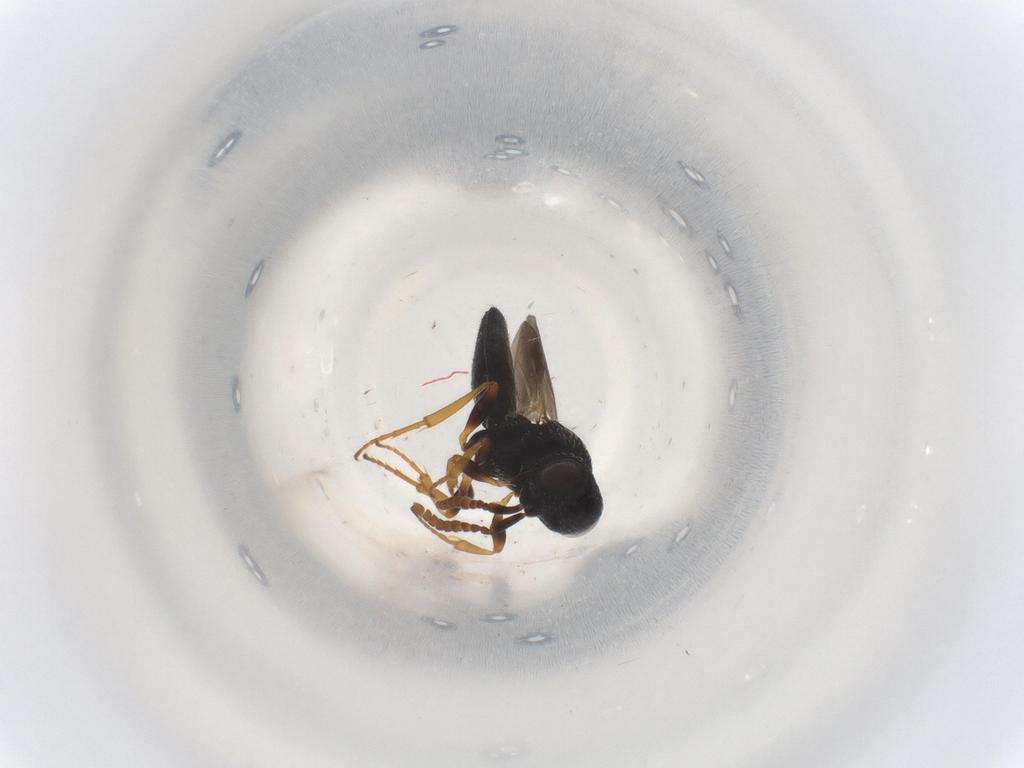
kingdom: Animalia
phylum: Arthropoda
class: Insecta
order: Hymenoptera
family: Scelionidae
